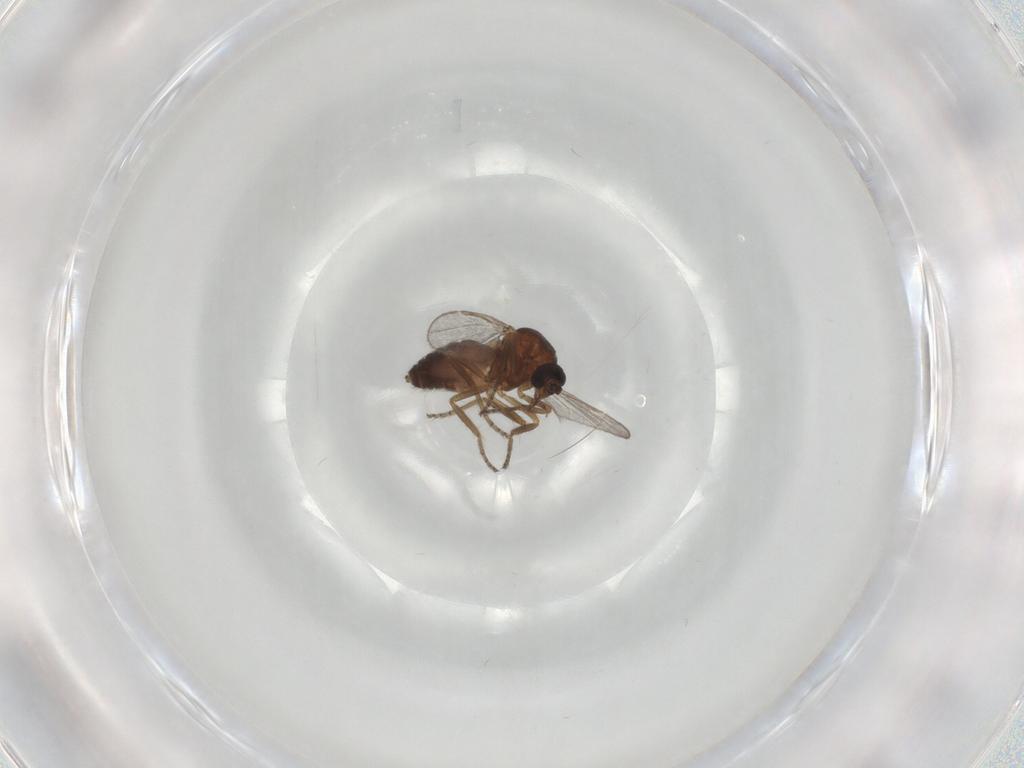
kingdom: Animalia
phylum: Arthropoda
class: Insecta
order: Diptera
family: Ceratopogonidae
